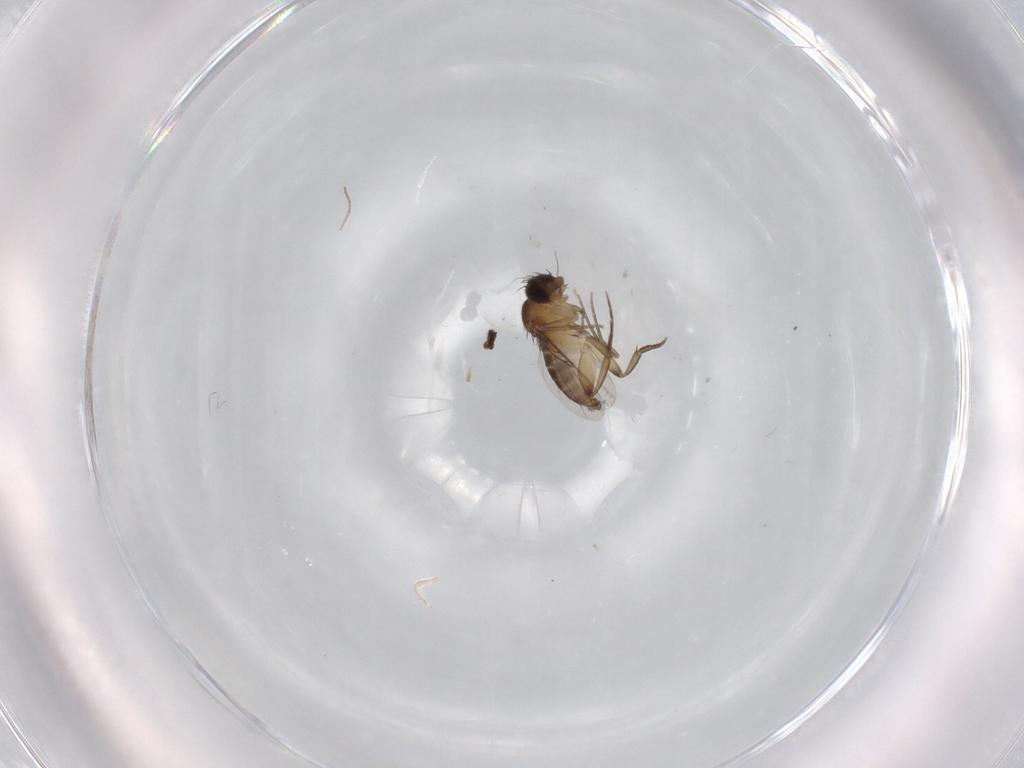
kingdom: Animalia
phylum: Arthropoda
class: Insecta
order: Diptera
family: Phoridae
